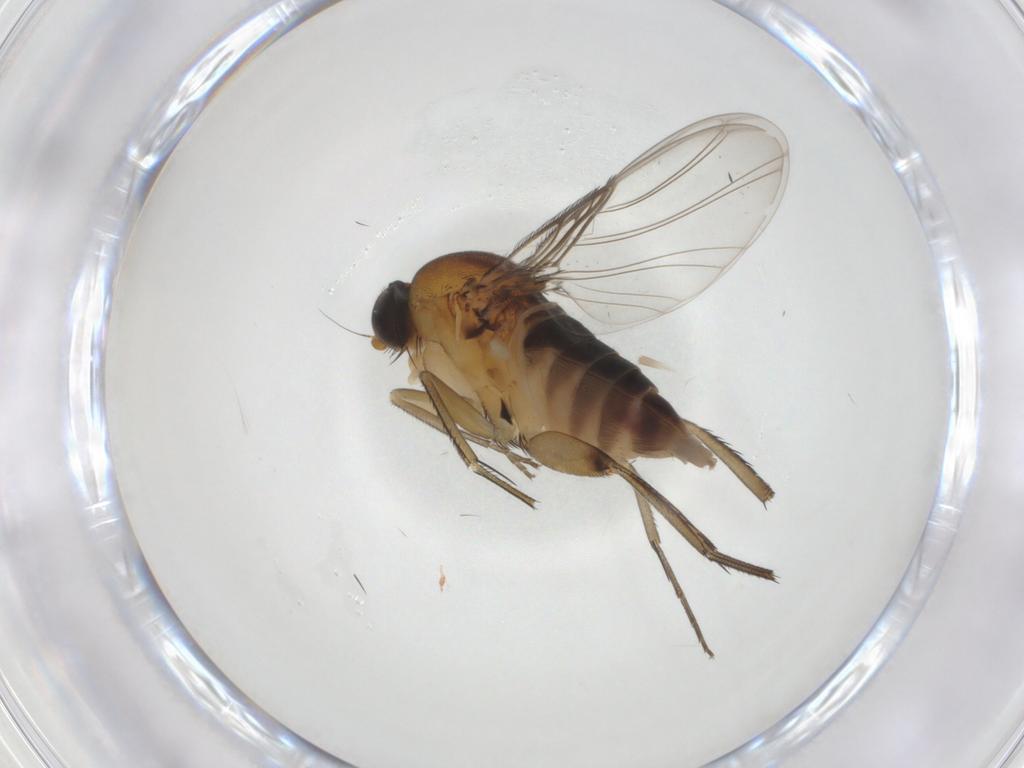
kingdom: Animalia
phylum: Arthropoda
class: Insecta
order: Diptera
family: Phoridae
